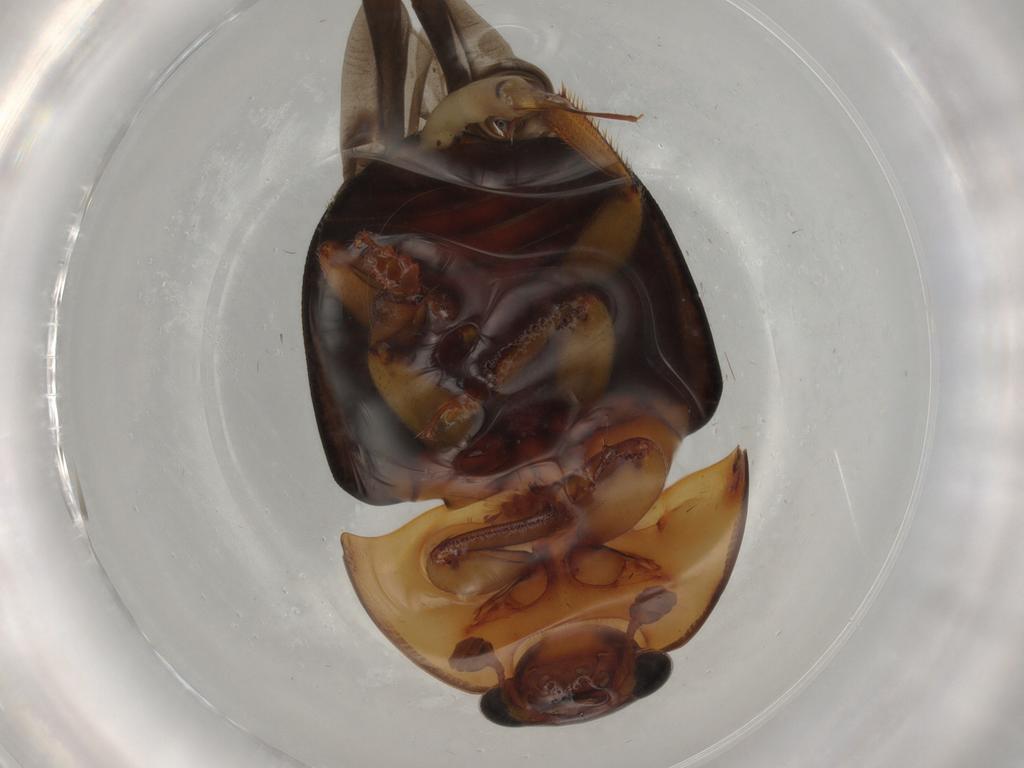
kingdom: Animalia
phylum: Arthropoda
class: Insecta
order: Coleoptera
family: Nitidulidae
